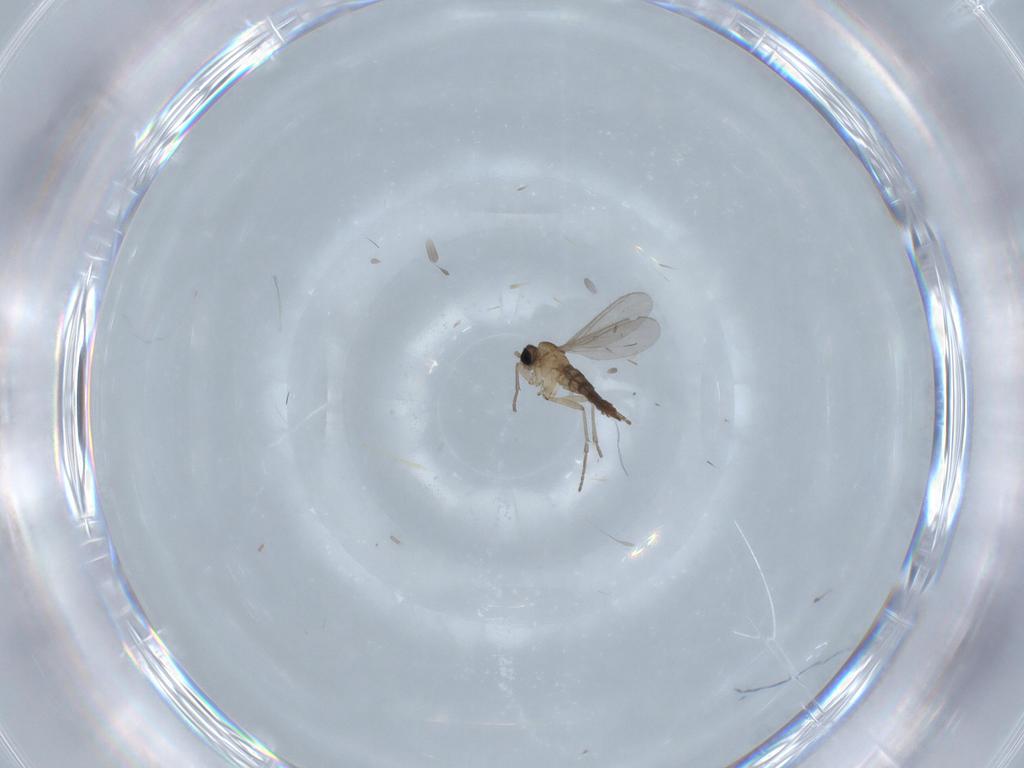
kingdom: Animalia
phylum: Arthropoda
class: Insecta
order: Diptera
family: Sciaridae
